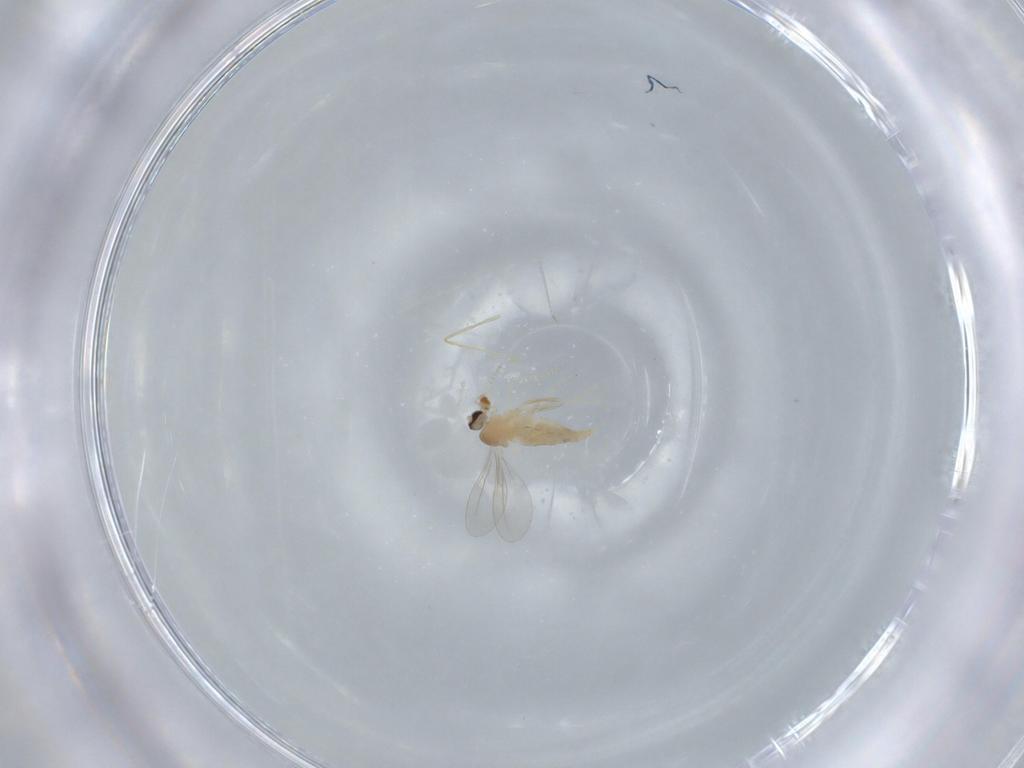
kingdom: Animalia
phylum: Arthropoda
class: Insecta
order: Diptera
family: Cecidomyiidae
